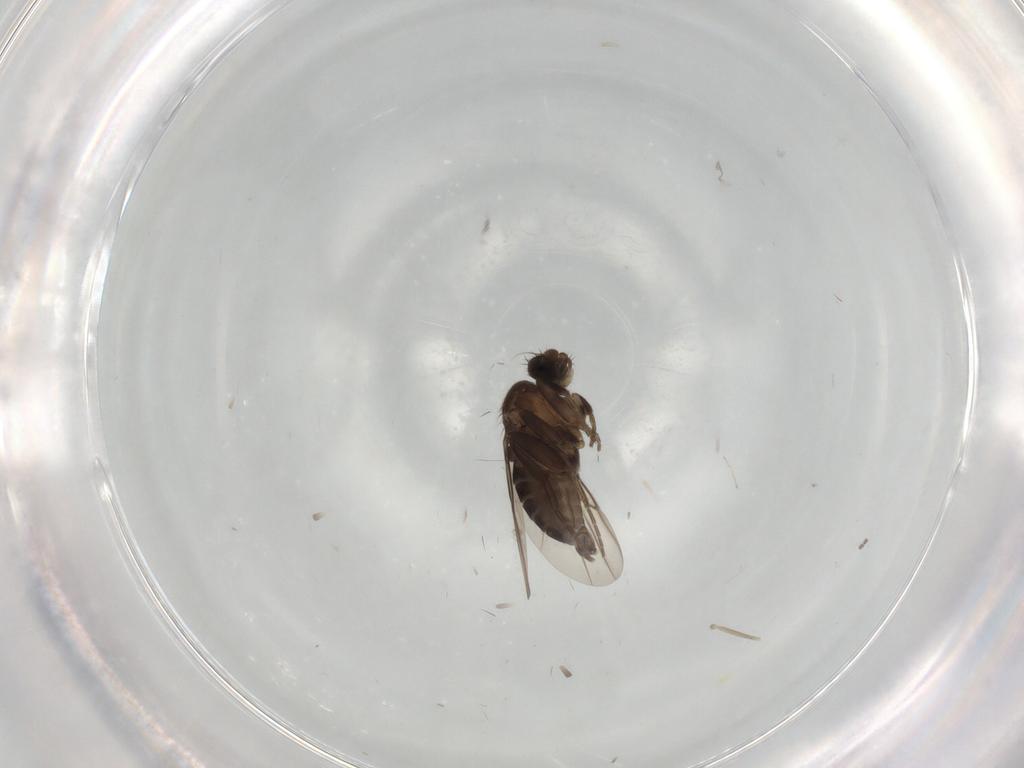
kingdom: Animalia
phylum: Arthropoda
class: Insecta
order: Diptera
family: Phoridae
